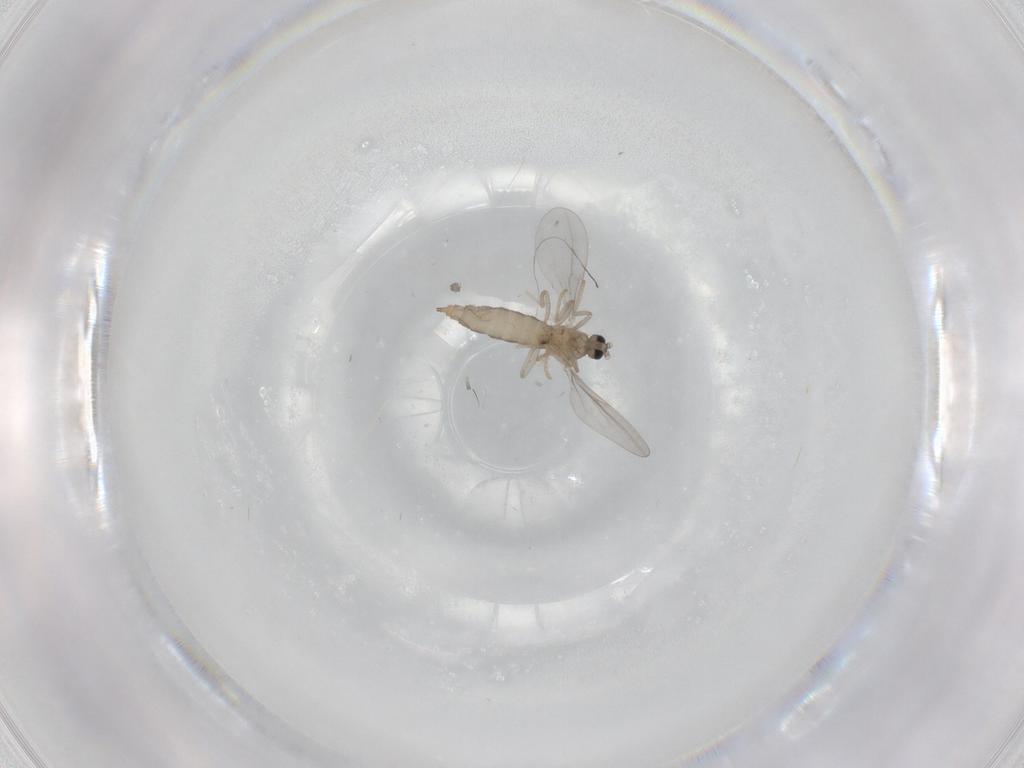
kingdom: Animalia
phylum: Arthropoda
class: Insecta
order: Diptera
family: Cecidomyiidae
